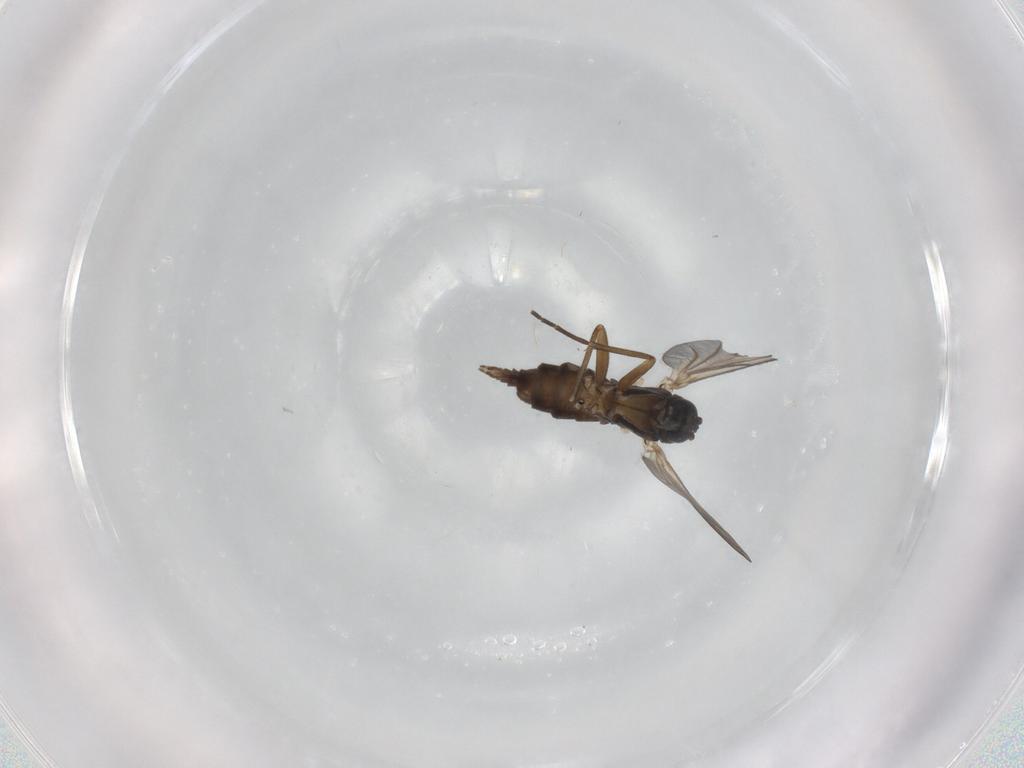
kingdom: Animalia
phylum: Arthropoda
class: Insecta
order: Diptera
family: Sciaridae
